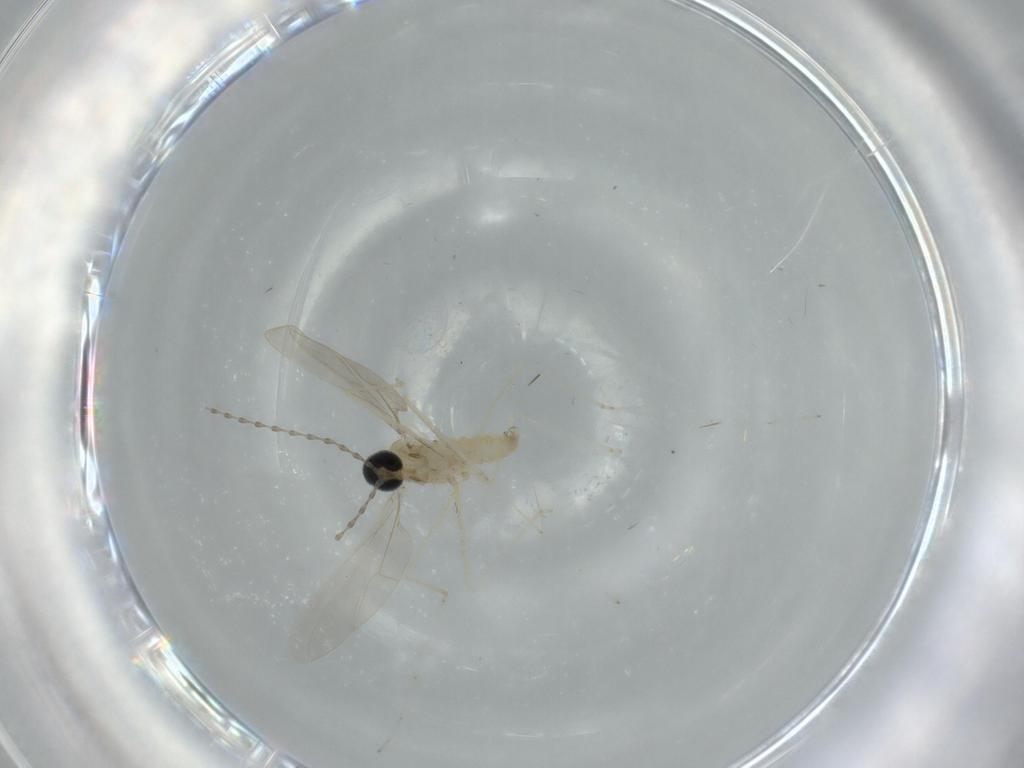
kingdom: Animalia
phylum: Arthropoda
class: Insecta
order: Diptera
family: Cecidomyiidae
